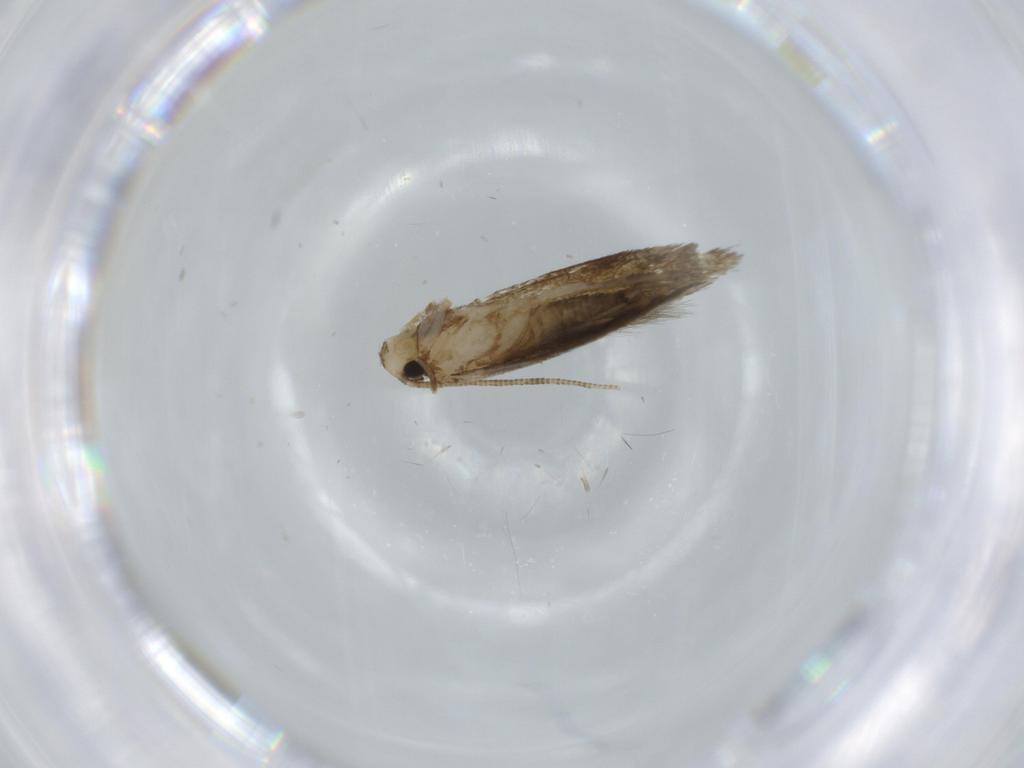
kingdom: Animalia
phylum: Arthropoda
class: Insecta
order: Lepidoptera
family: Tineidae
